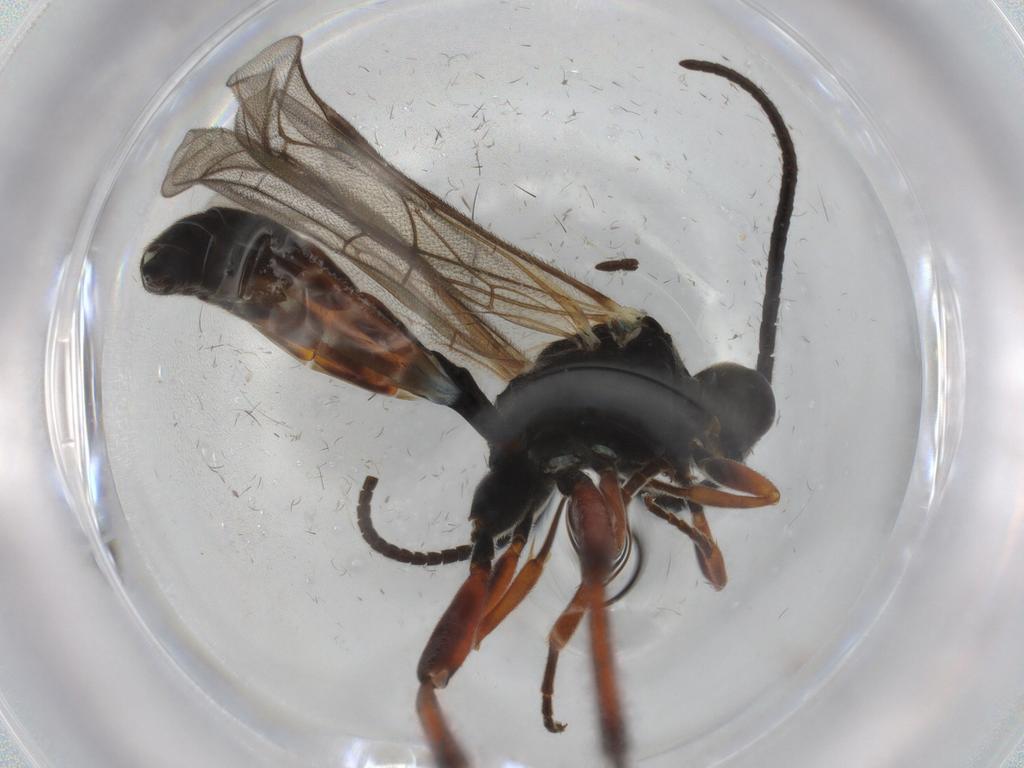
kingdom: Animalia
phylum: Arthropoda
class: Insecta
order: Hymenoptera
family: Ichneumonidae
